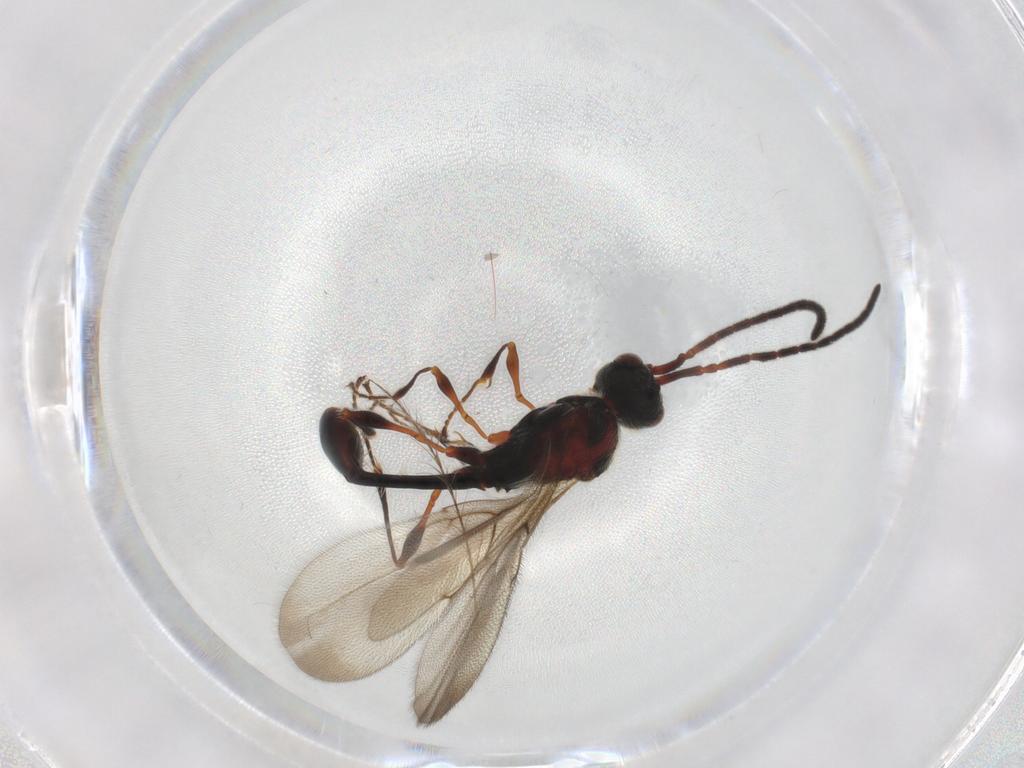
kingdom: Animalia
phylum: Arthropoda
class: Insecta
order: Hymenoptera
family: Diapriidae
